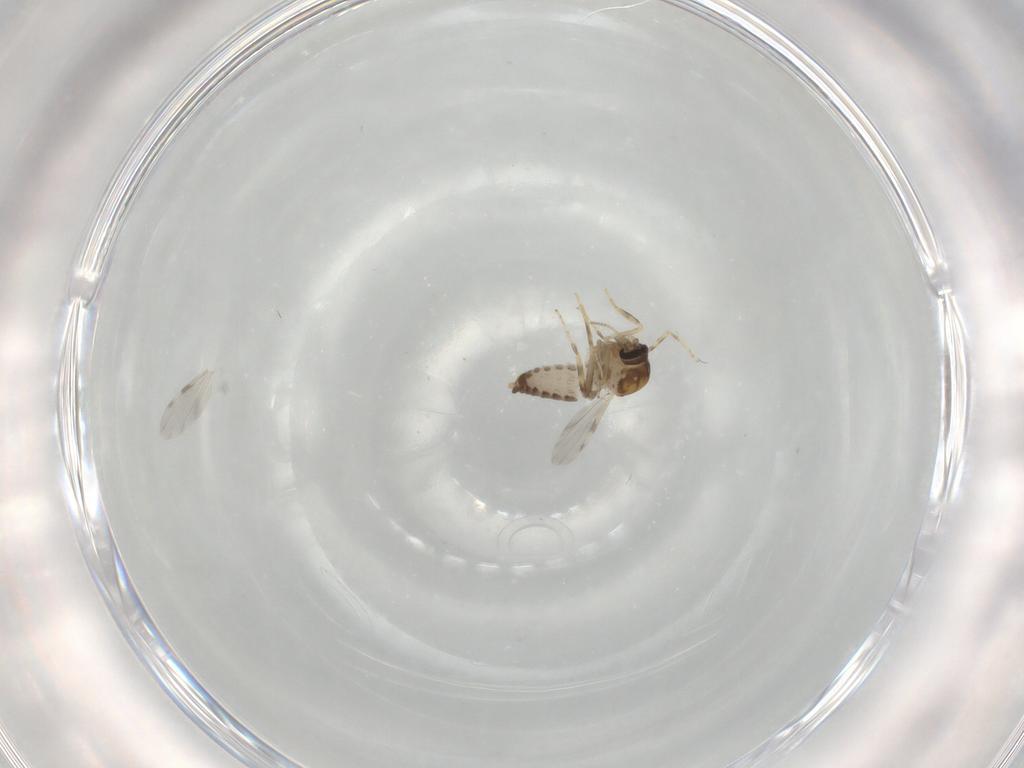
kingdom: Animalia
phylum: Arthropoda
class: Insecta
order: Diptera
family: Ceratopogonidae
